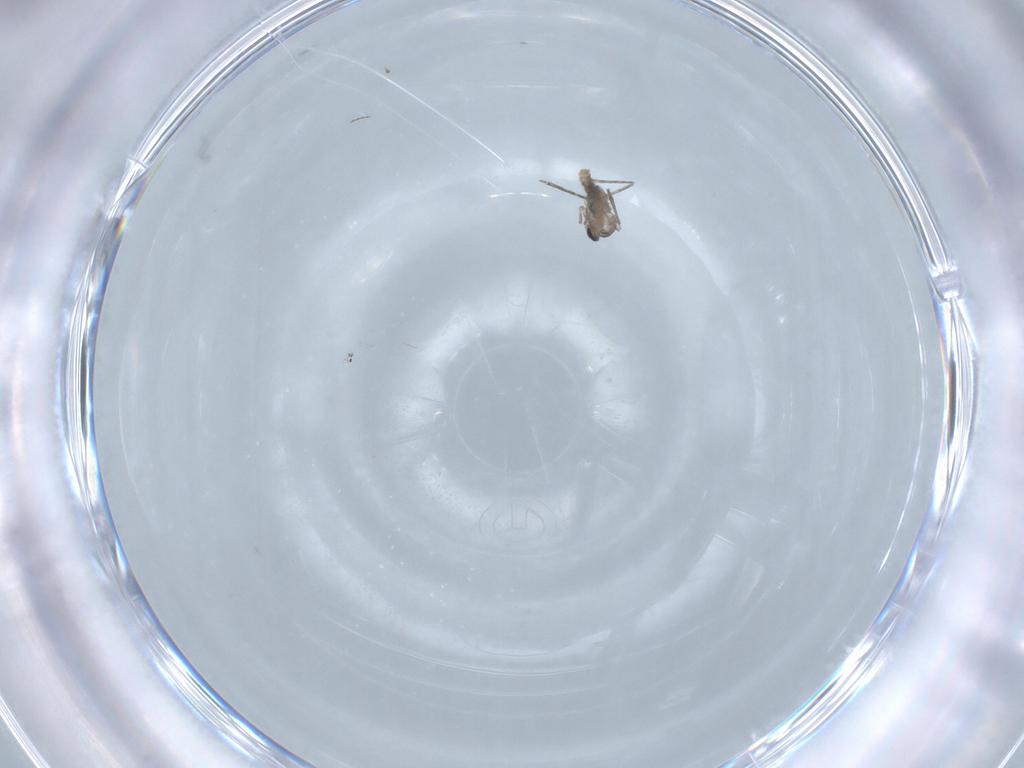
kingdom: Animalia
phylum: Arthropoda
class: Insecta
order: Diptera
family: Cecidomyiidae
